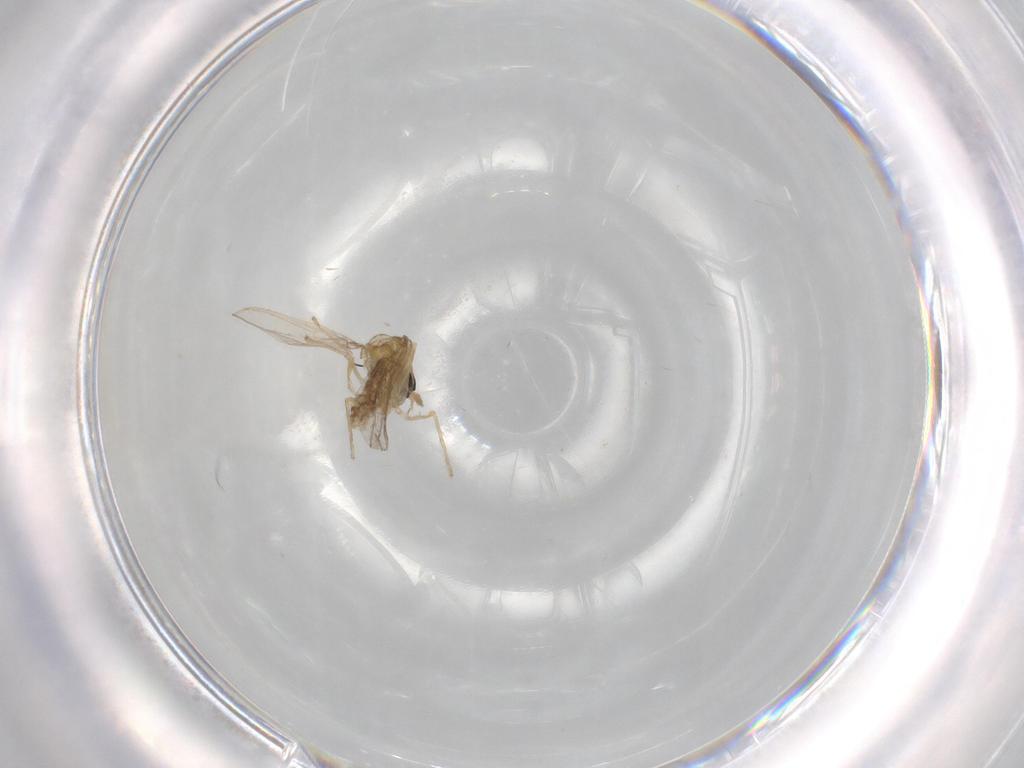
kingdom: Animalia
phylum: Arthropoda
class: Insecta
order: Diptera
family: Chironomidae
